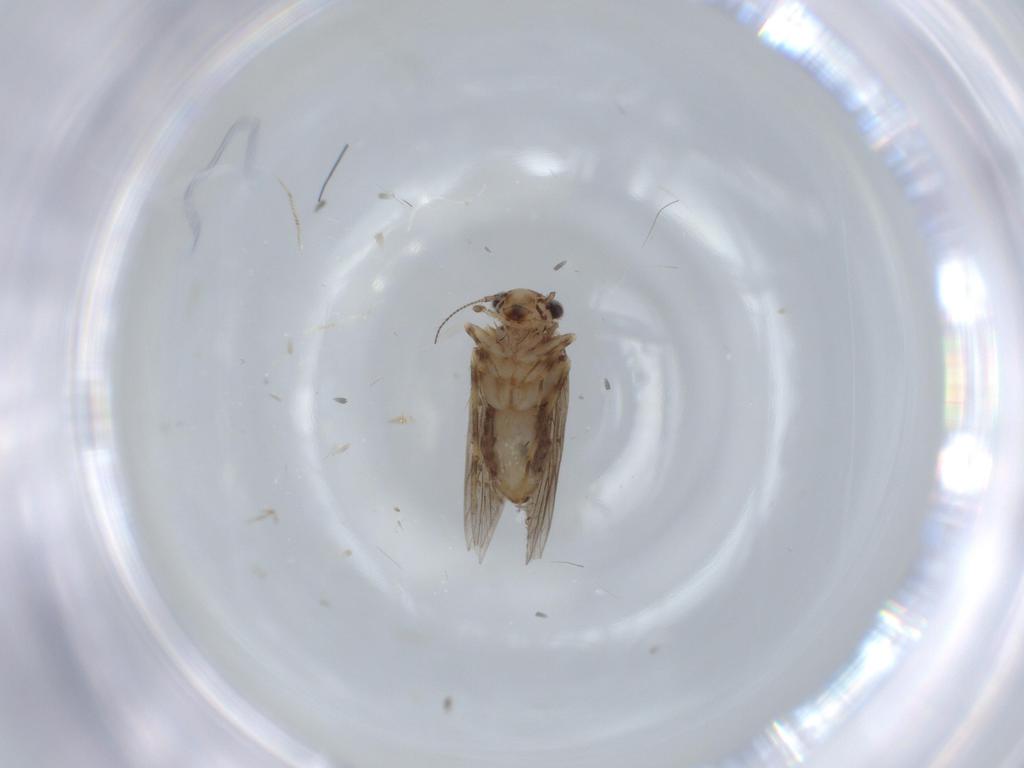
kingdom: Animalia
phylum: Arthropoda
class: Insecta
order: Psocodea
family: Lepidopsocidae
